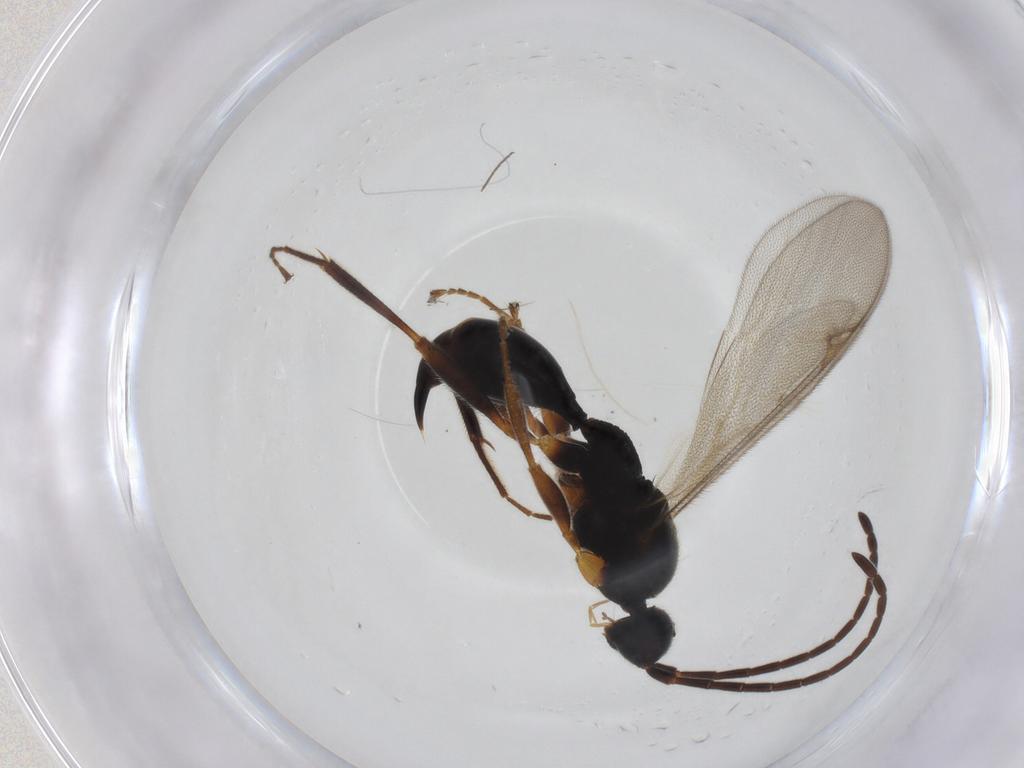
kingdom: Animalia
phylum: Arthropoda
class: Insecta
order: Hymenoptera
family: Proctotrupidae
